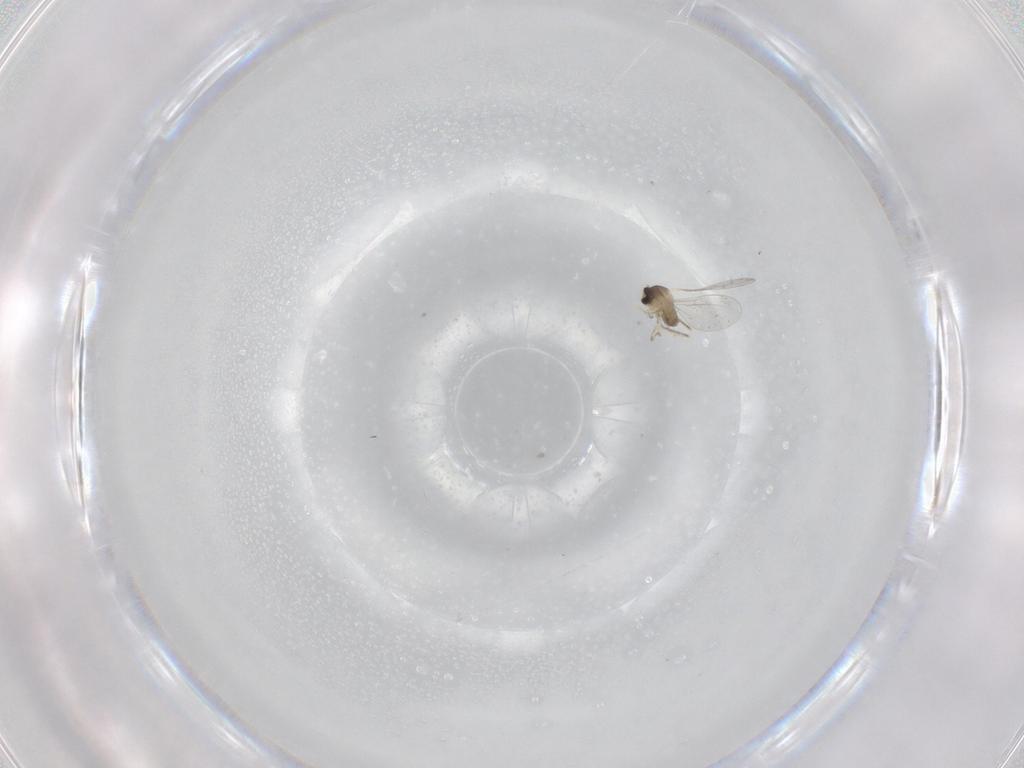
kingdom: Animalia
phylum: Arthropoda
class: Insecta
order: Diptera
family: Cecidomyiidae
